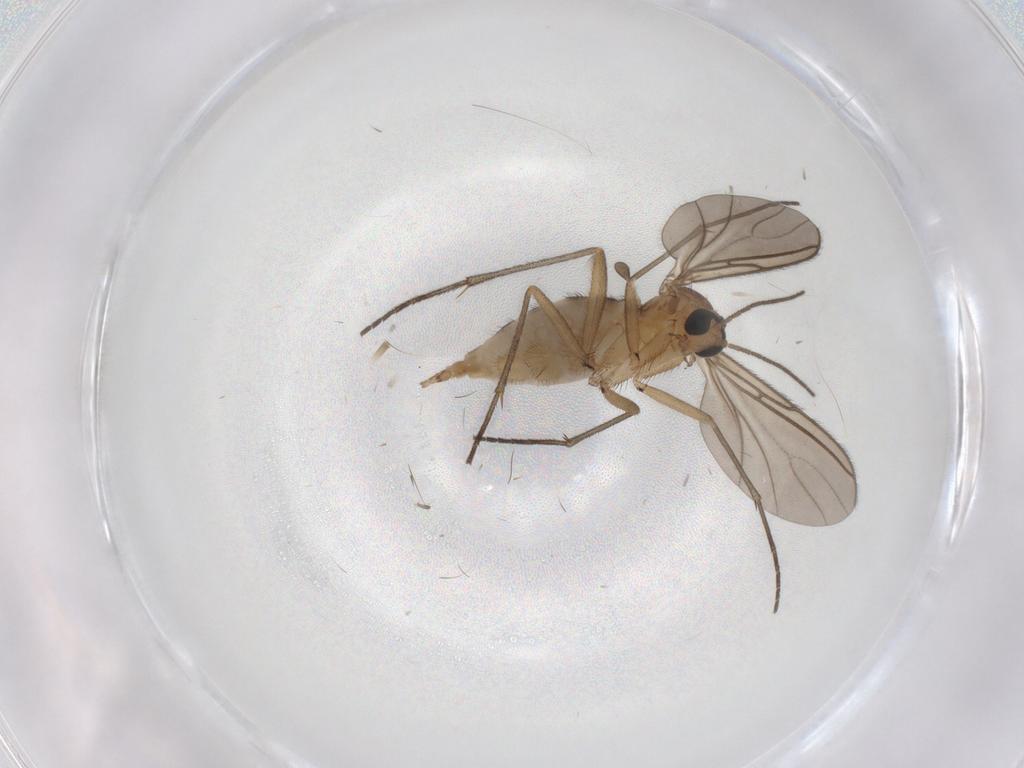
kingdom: Animalia
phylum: Arthropoda
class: Insecta
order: Diptera
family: Sciaridae
